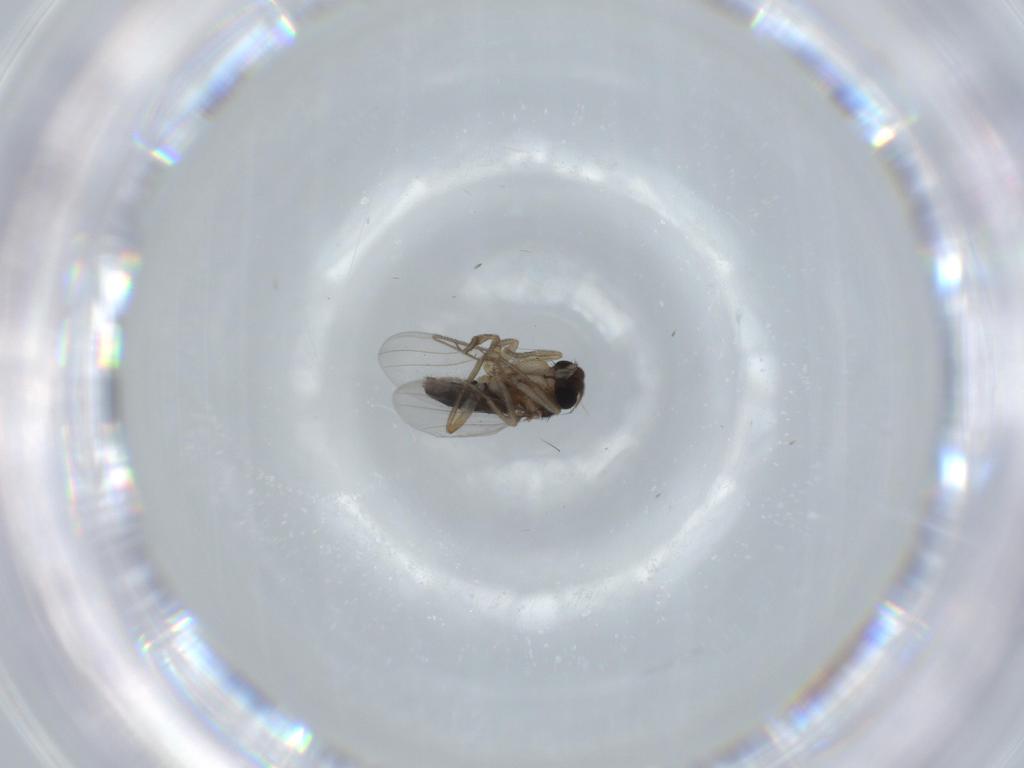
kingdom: Animalia
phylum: Arthropoda
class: Insecta
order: Diptera
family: Phoridae
